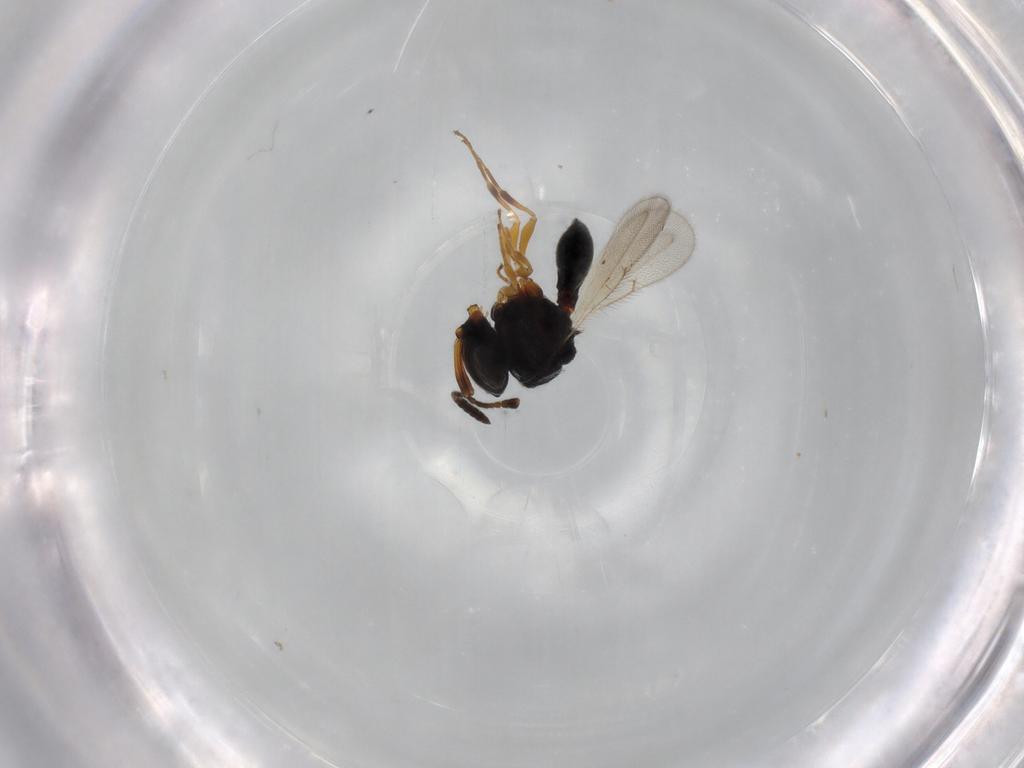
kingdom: Animalia
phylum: Arthropoda
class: Insecta
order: Hymenoptera
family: Scelionidae
